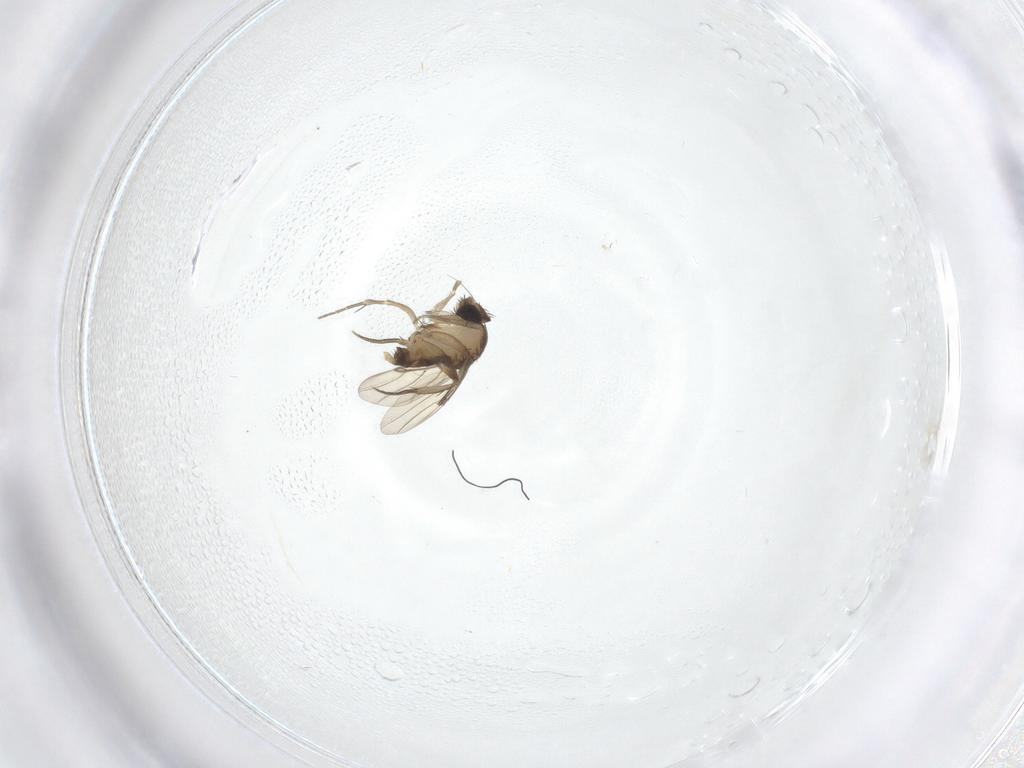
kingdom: Animalia
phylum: Arthropoda
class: Insecta
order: Diptera
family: Phoridae
